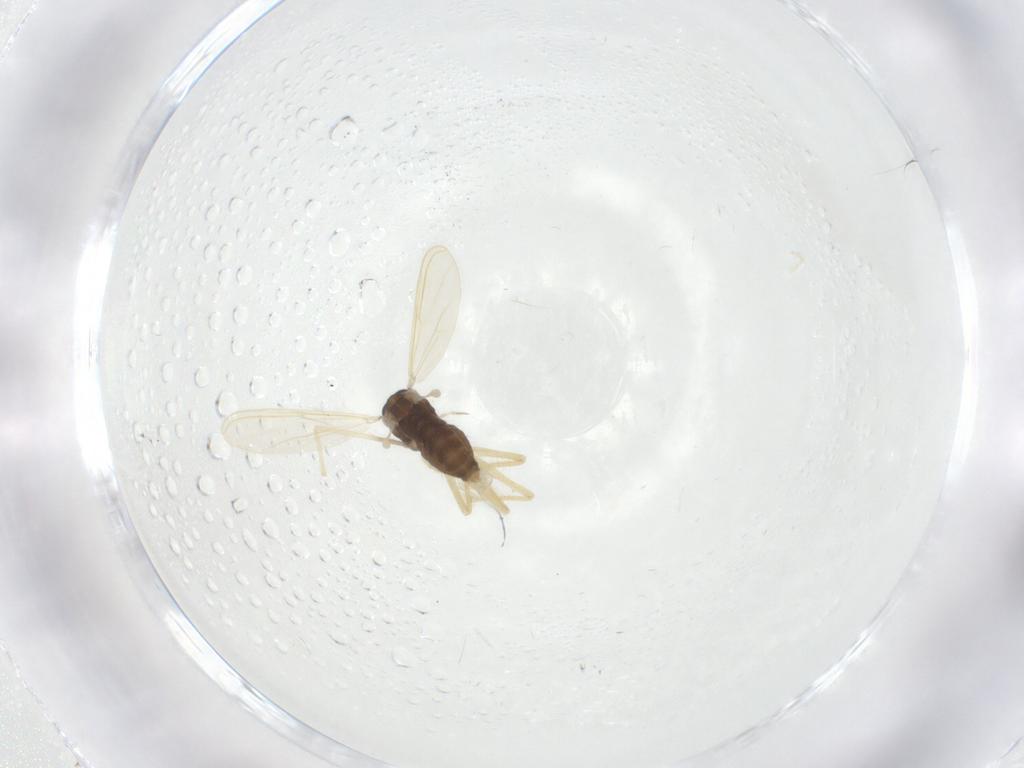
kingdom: Animalia
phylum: Arthropoda
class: Insecta
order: Diptera
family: Chironomidae
